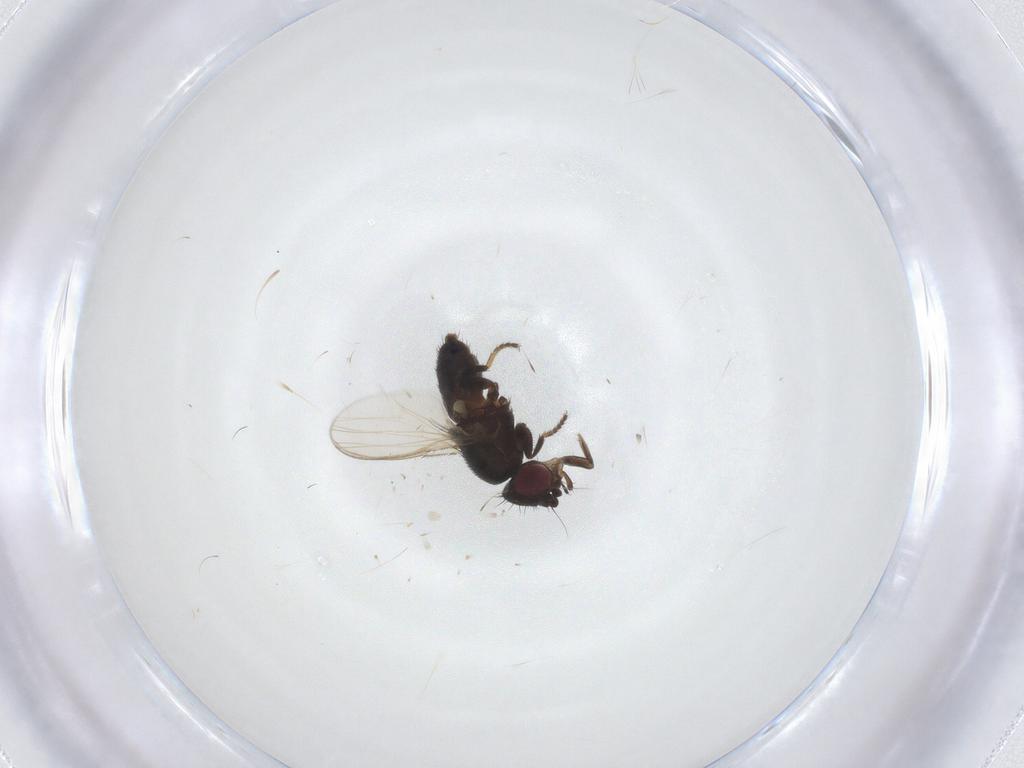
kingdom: Animalia
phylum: Arthropoda
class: Insecta
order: Diptera
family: Milichiidae
